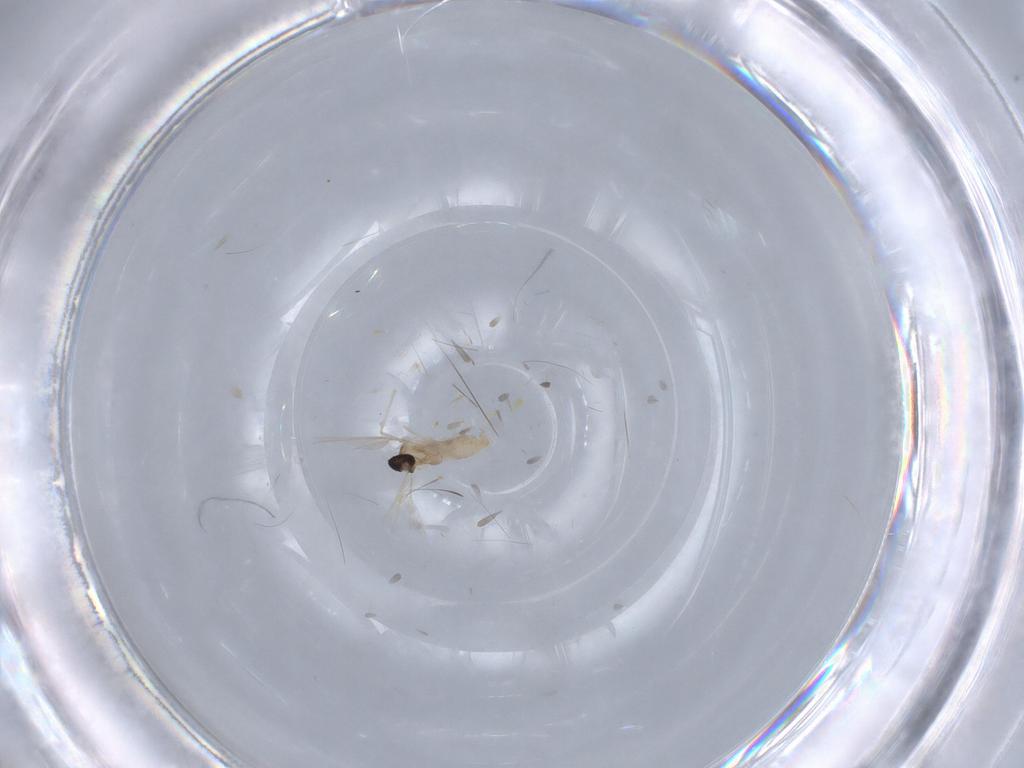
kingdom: Animalia
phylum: Arthropoda
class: Insecta
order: Diptera
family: Cecidomyiidae
